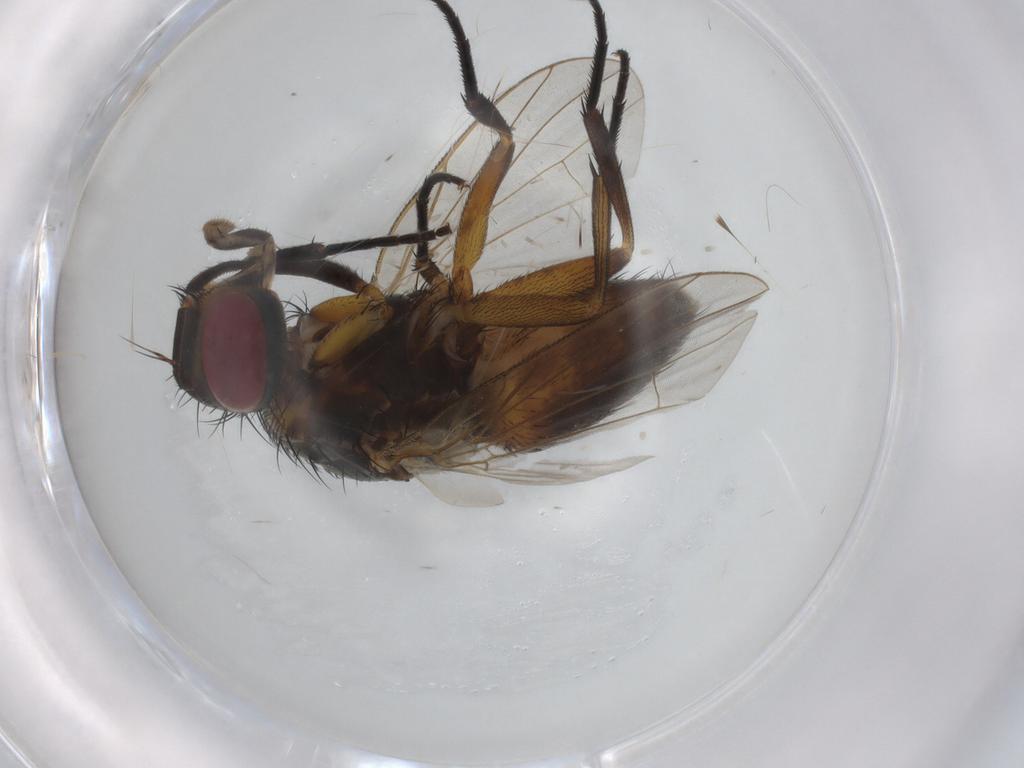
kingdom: Animalia
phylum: Arthropoda
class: Insecta
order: Diptera
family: Muscidae
